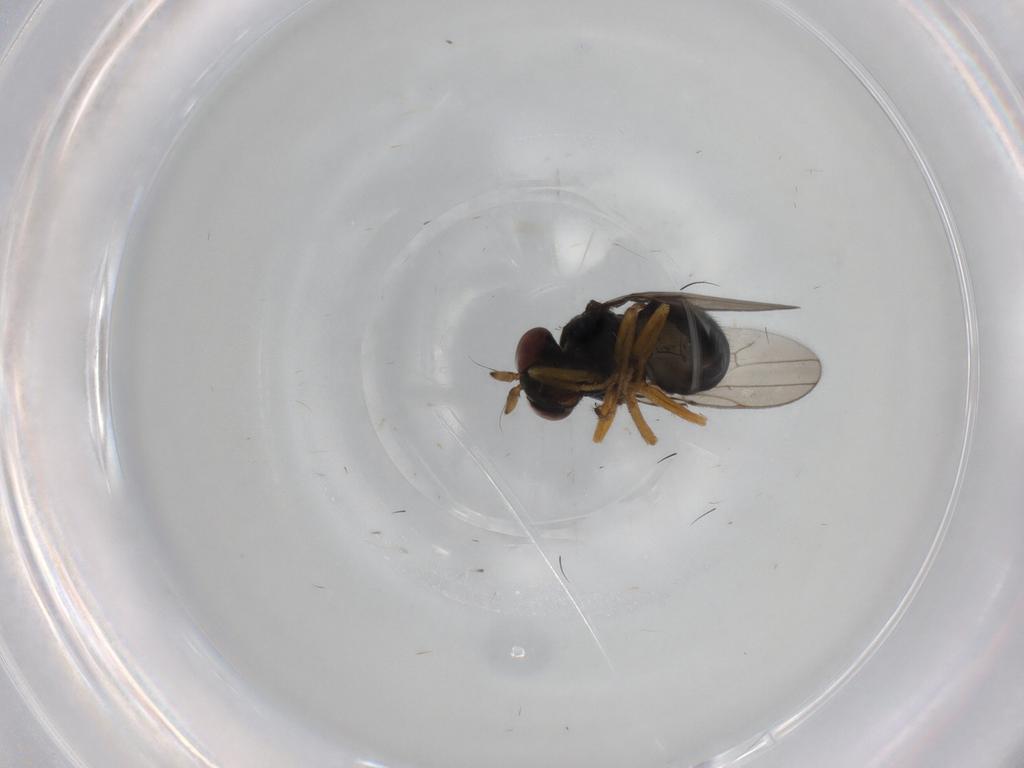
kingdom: Animalia
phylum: Arthropoda
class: Insecta
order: Diptera
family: Ephydridae
